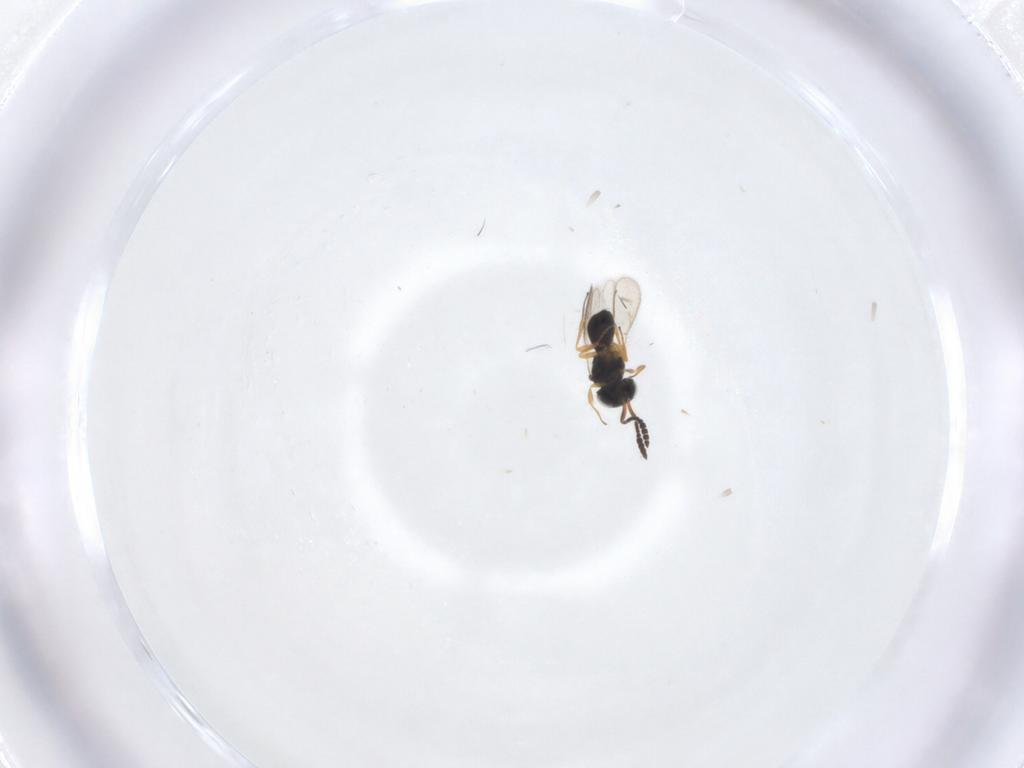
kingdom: Animalia
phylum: Arthropoda
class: Insecta
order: Hymenoptera
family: Scelionidae
